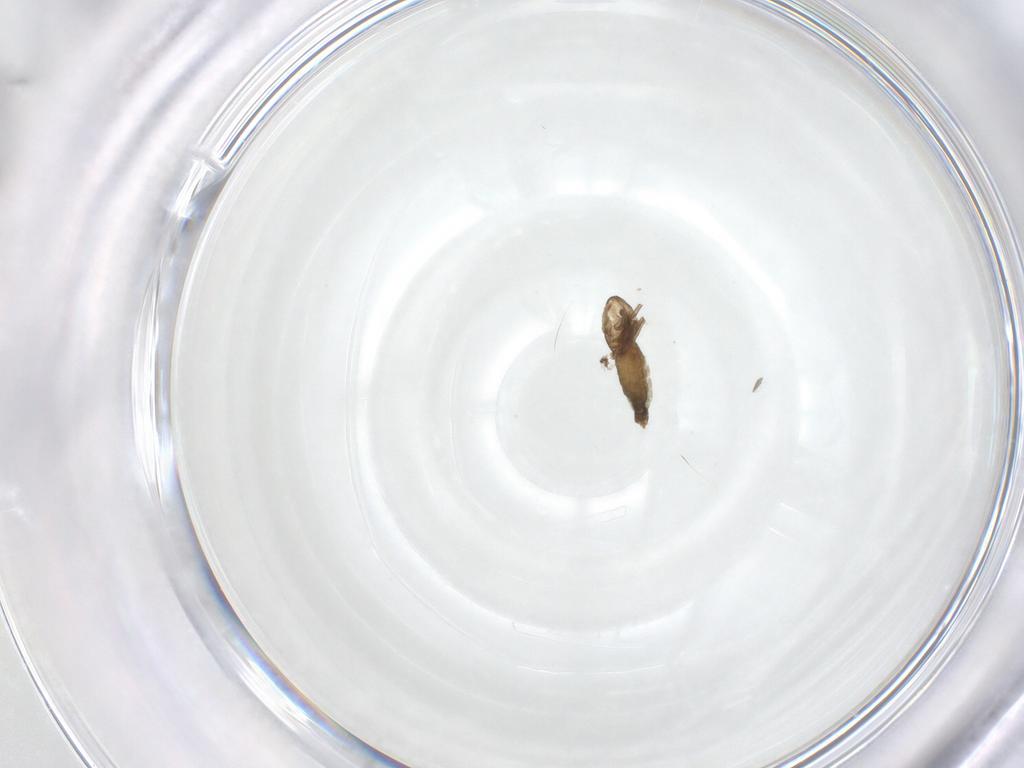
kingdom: Animalia
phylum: Arthropoda
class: Insecta
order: Diptera
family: Chironomidae
